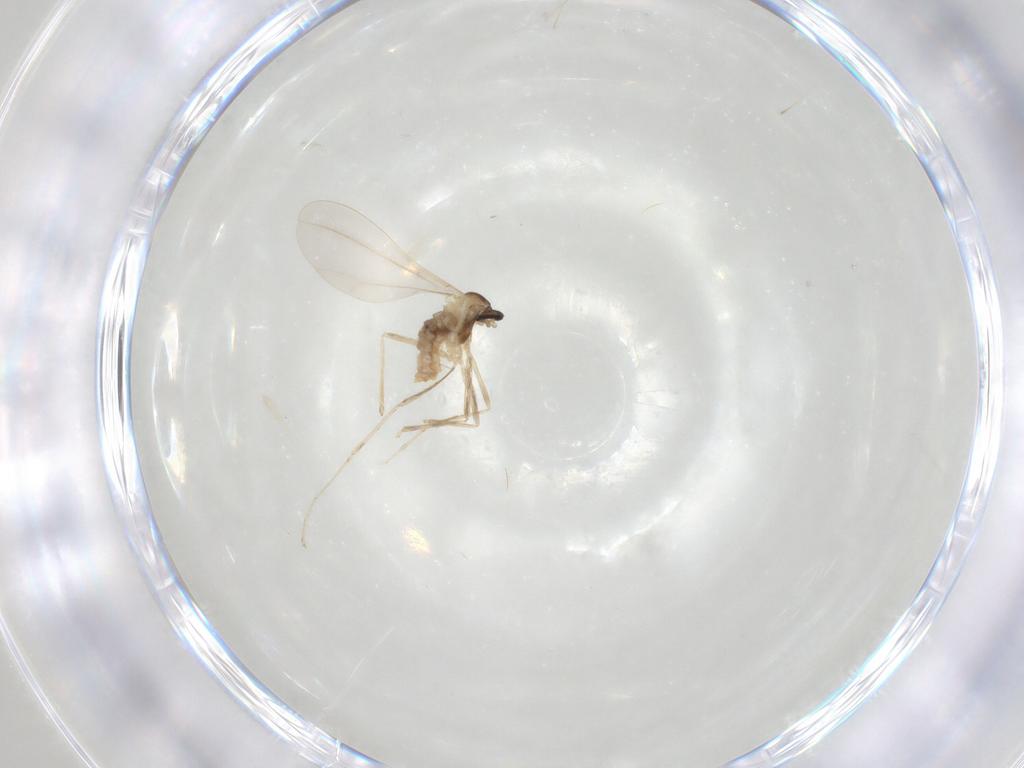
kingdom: Animalia
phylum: Arthropoda
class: Insecta
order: Diptera
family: Cecidomyiidae
